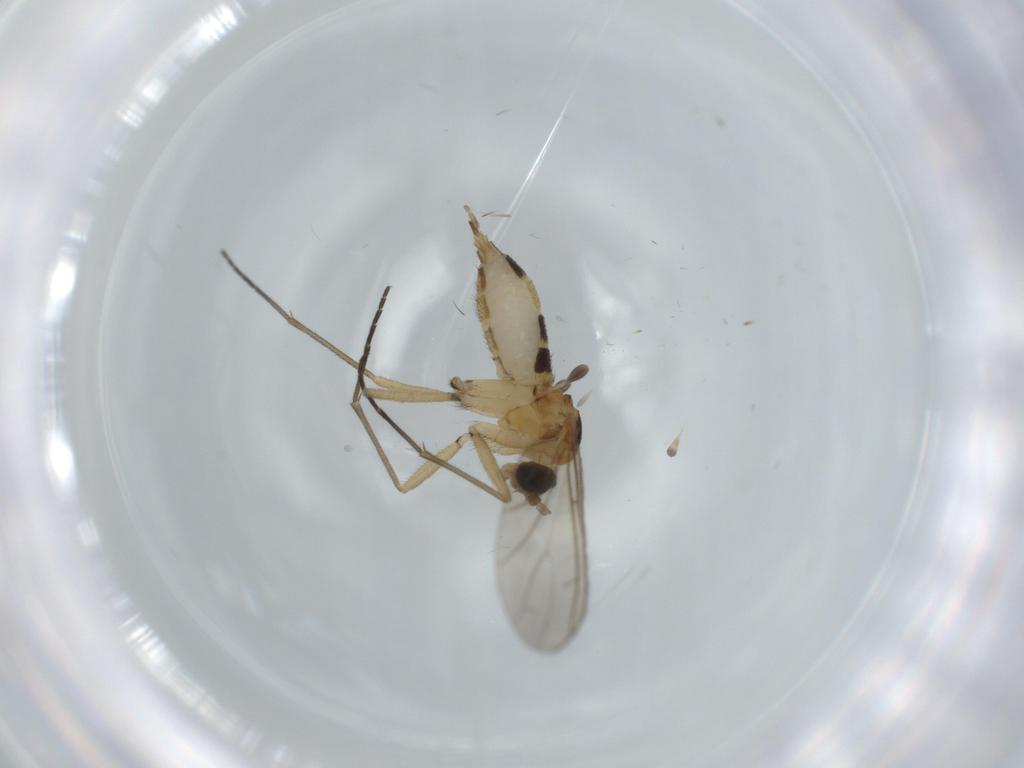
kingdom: Animalia
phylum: Arthropoda
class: Insecta
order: Diptera
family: Sciaridae
